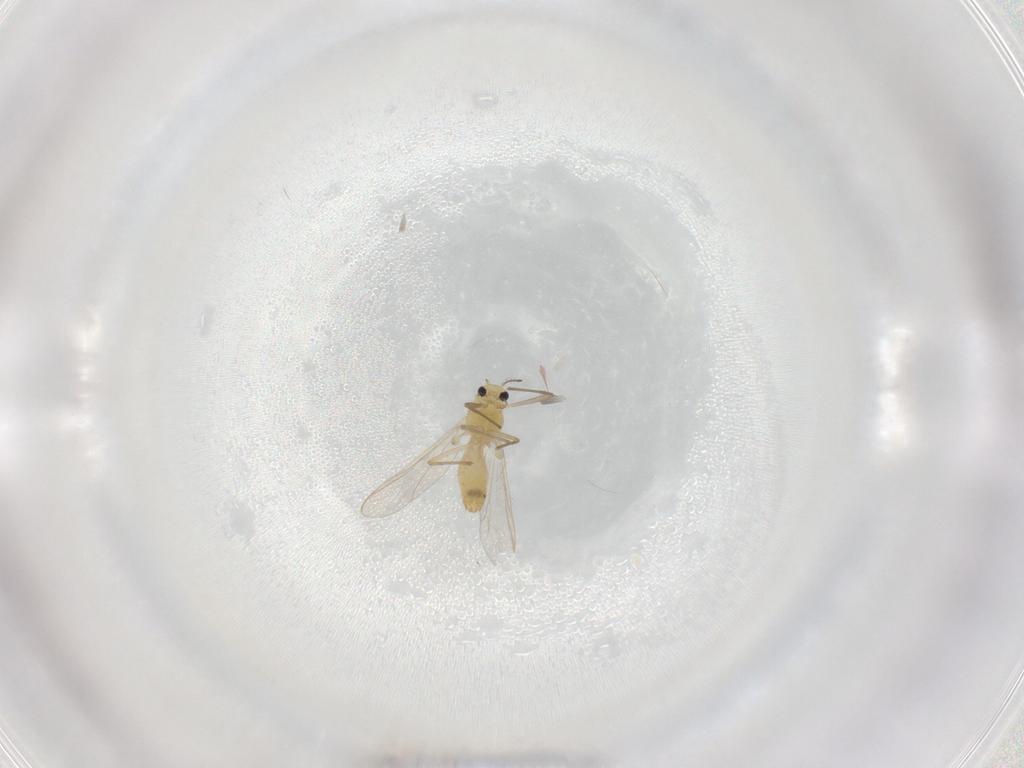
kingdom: Animalia
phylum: Arthropoda
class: Insecta
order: Diptera
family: Chironomidae
